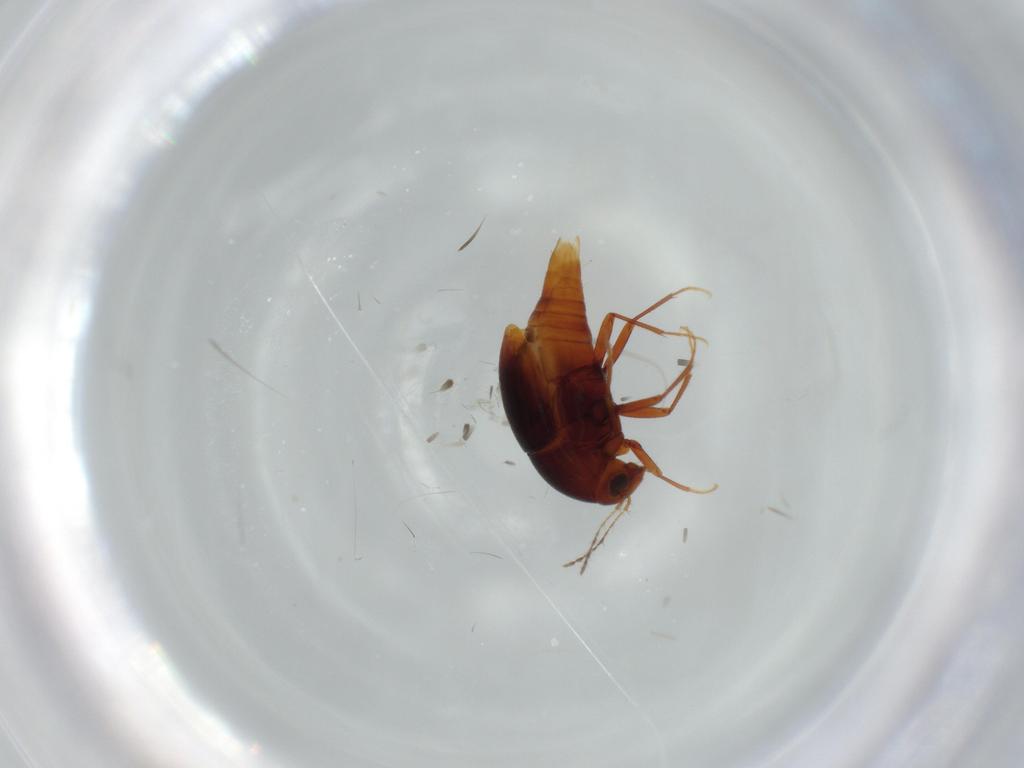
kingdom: Animalia
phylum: Arthropoda
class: Insecta
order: Coleoptera
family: Staphylinidae
